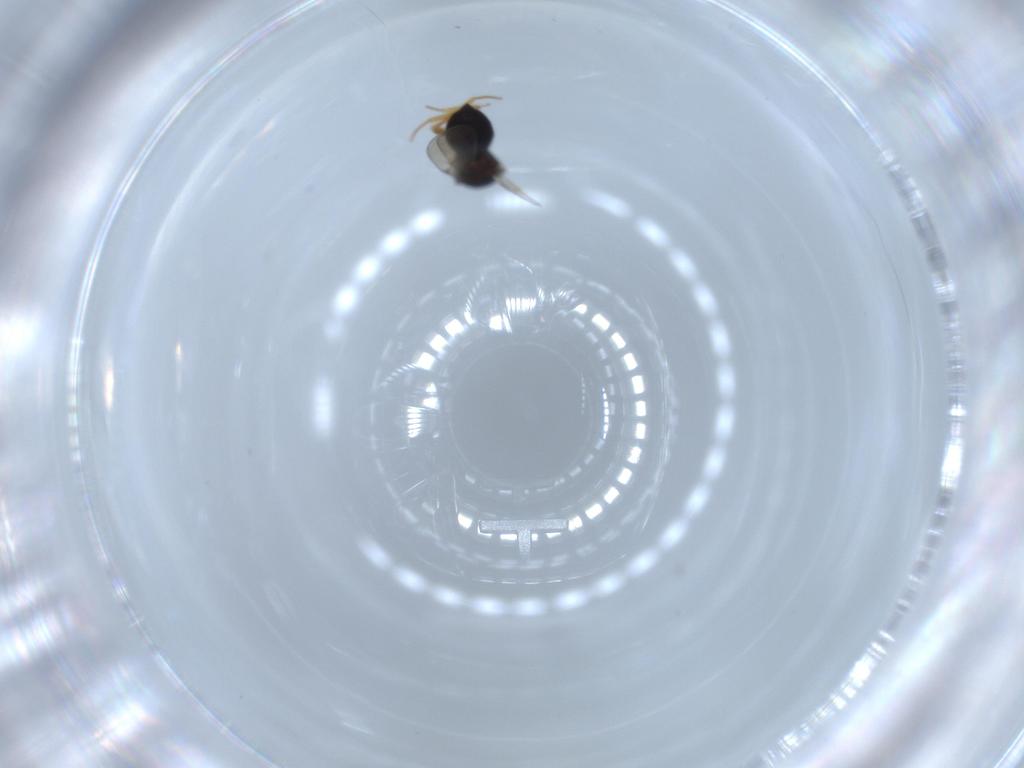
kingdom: Animalia
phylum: Arthropoda
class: Insecta
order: Hymenoptera
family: Scelionidae
